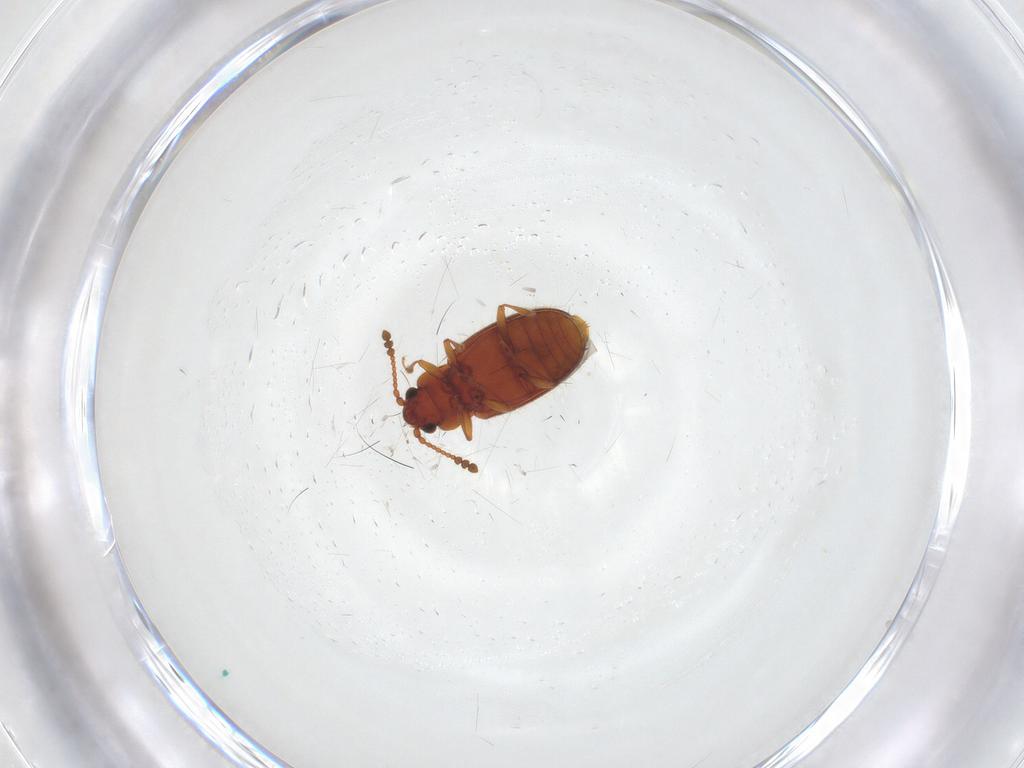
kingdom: Animalia
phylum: Arthropoda
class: Insecta
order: Coleoptera
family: Cryptophagidae
